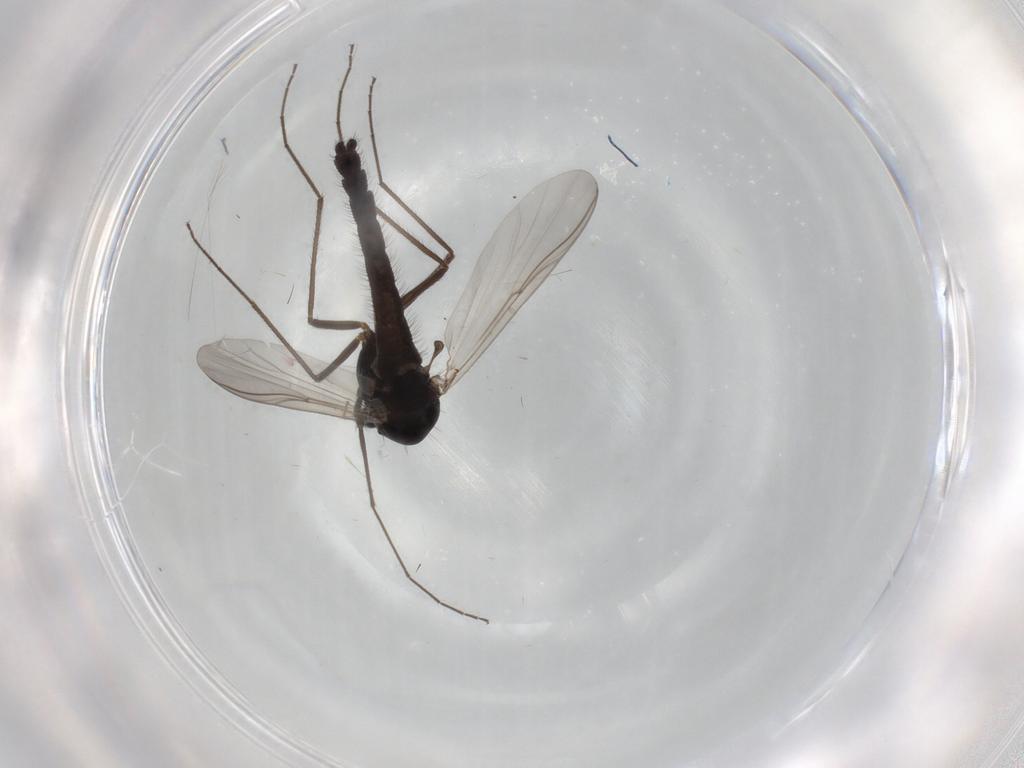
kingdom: Animalia
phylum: Arthropoda
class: Insecta
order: Diptera
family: Chironomidae
